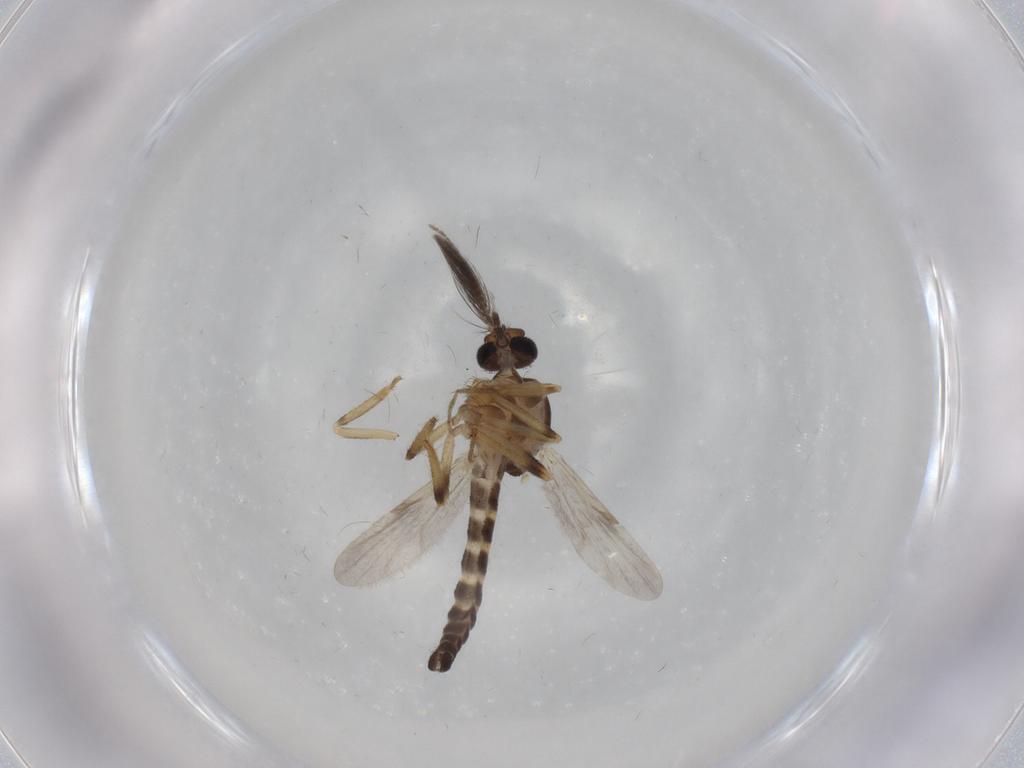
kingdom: Animalia
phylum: Arthropoda
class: Insecta
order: Diptera
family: Ceratopogonidae
